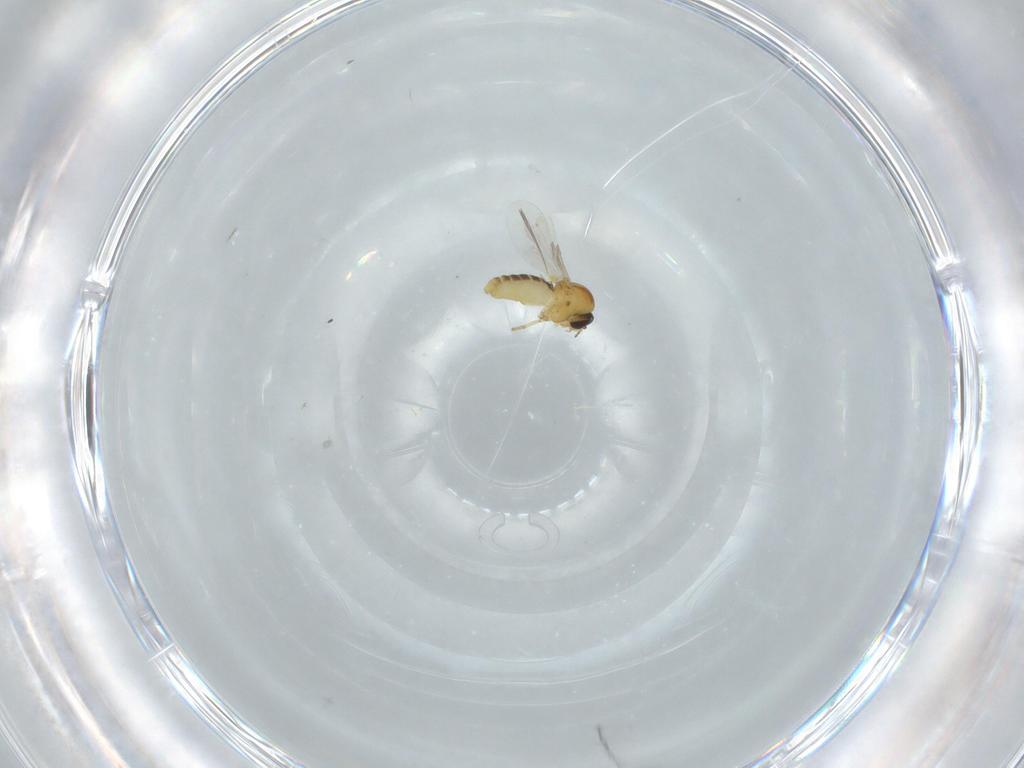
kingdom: Animalia
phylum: Arthropoda
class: Insecta
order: Diptera
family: Ceratopogonidae
